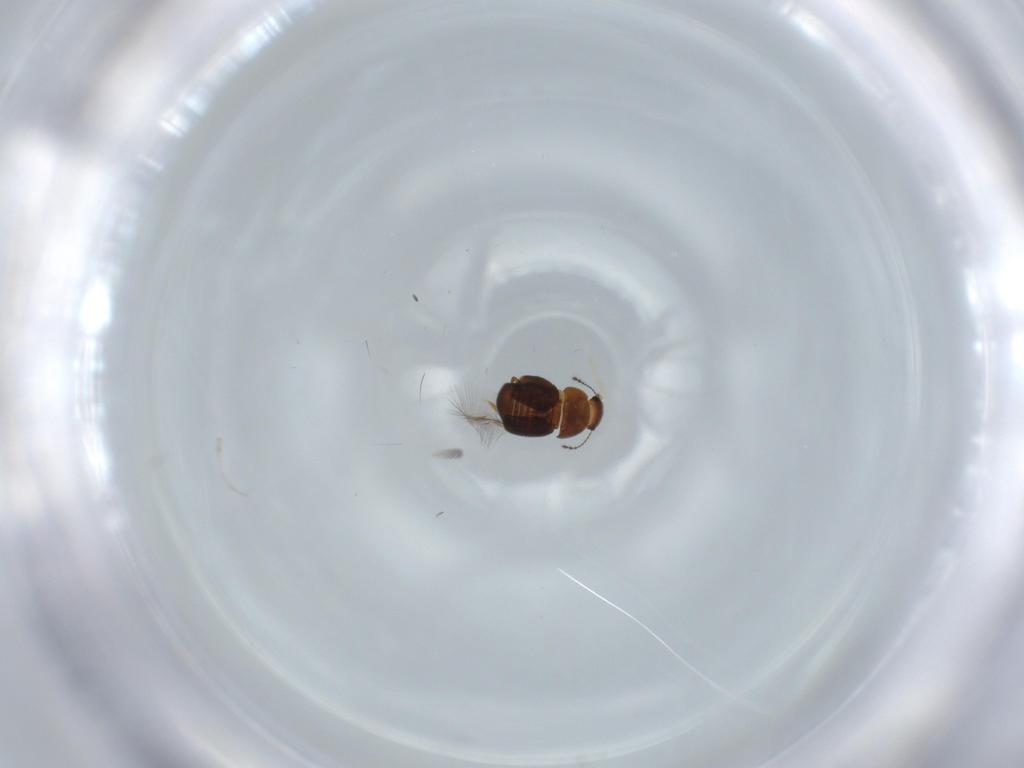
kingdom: Animalia
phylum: Arthropoda
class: Insecta
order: Coleoptera
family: Ptiliidae
